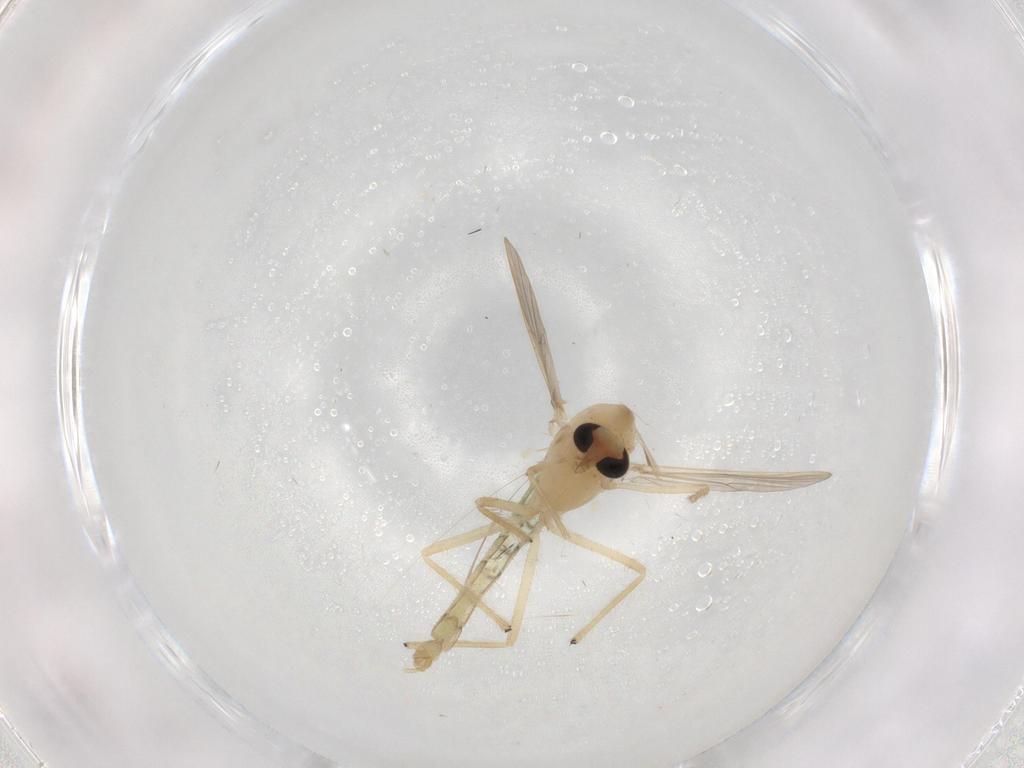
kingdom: Animalia
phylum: Arthropoda
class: Insecta
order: Diptera
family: Chironomidae
